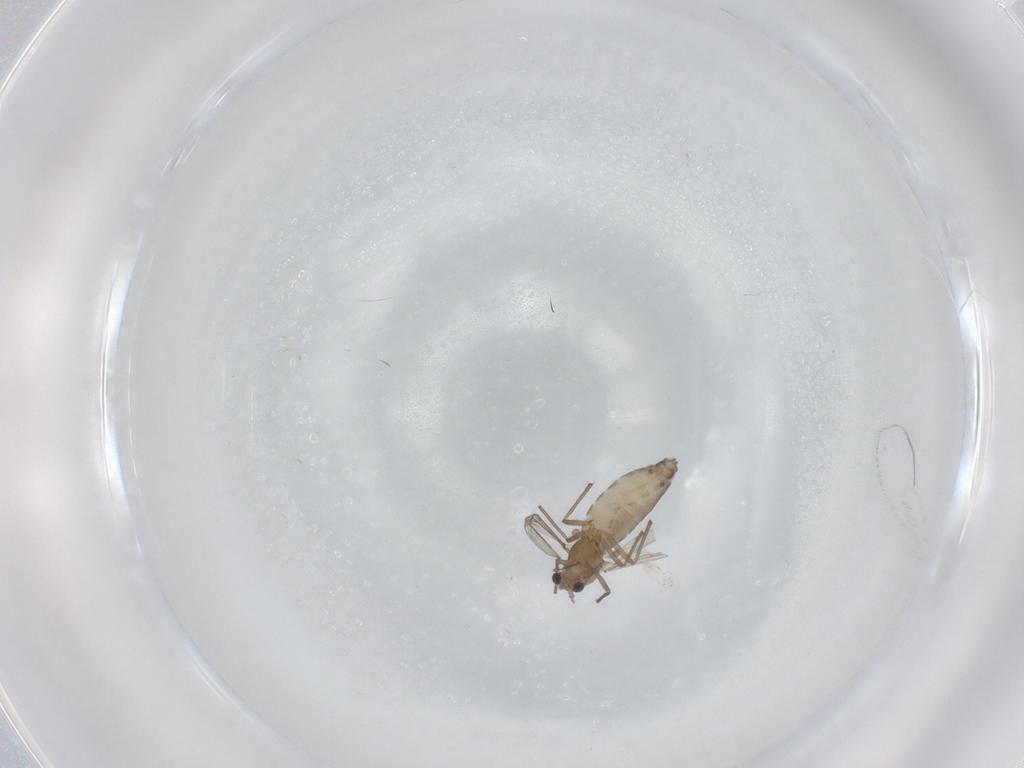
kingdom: Animalia
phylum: Arthropoda
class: Insecta
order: Diptera
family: Chironomidae
